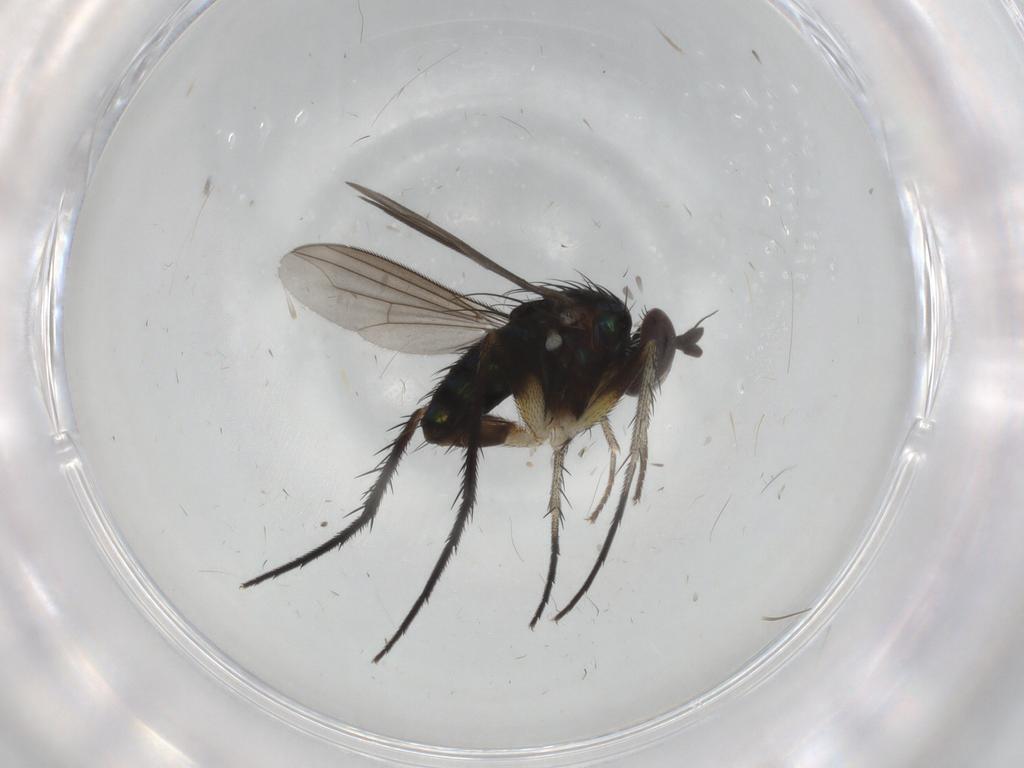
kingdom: Animalia
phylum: Arthropoda
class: Insecta
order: Diptera
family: Dolichopodidae
